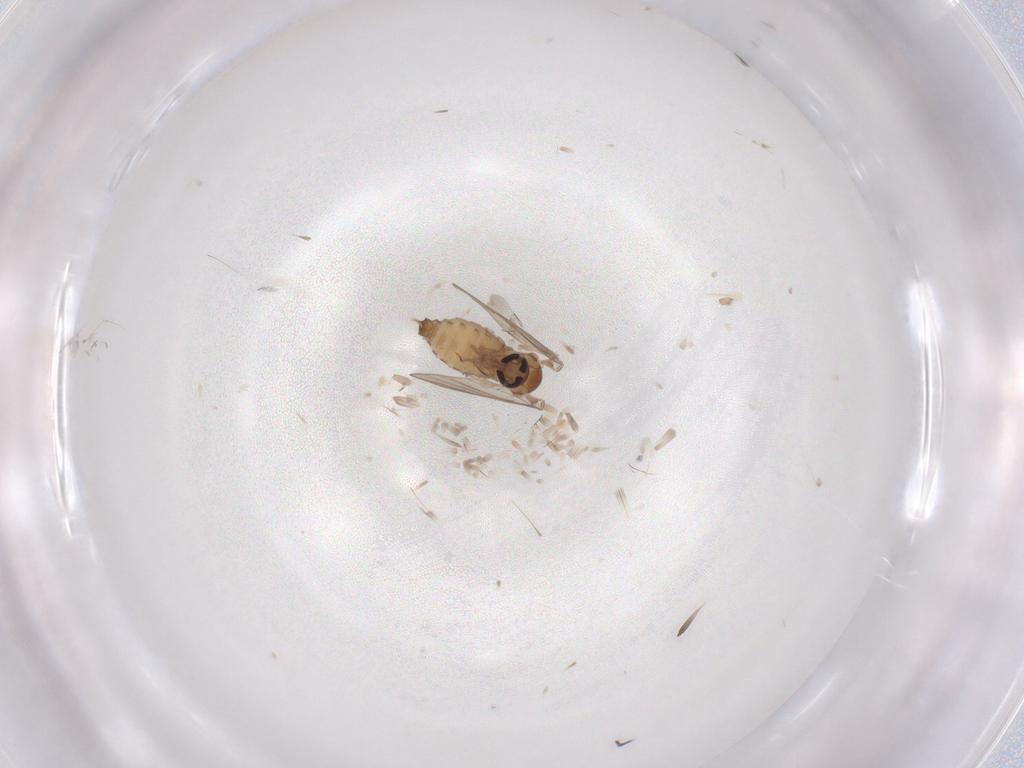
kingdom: Animalia
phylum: Arthropoda
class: Insecta
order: Diptera
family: Psychodidae
